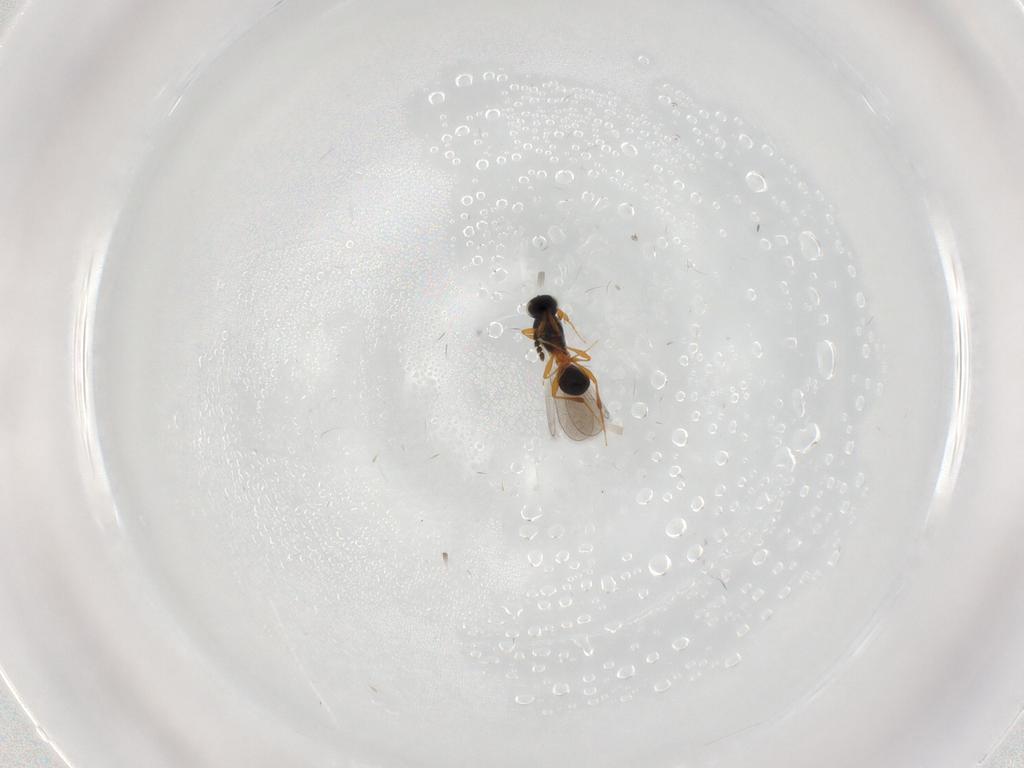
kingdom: Animalia
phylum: Arthropoda
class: Insecta
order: Hymenoptera
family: Platygastridae
